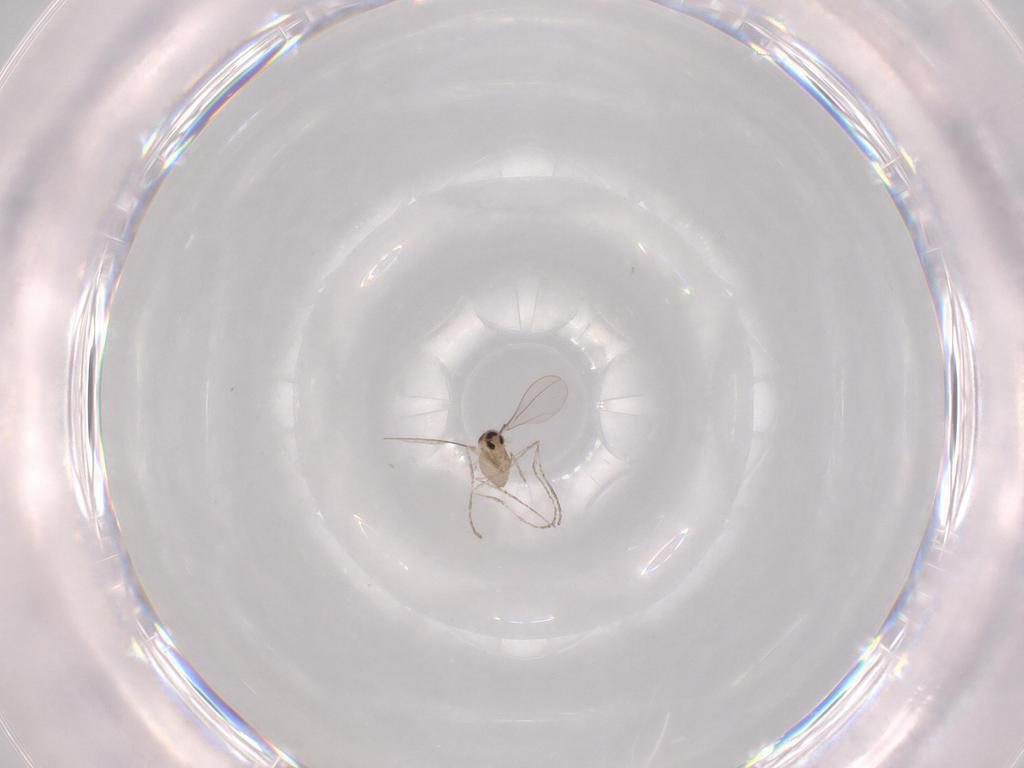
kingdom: Animalia
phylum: Arthropoda
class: Insecta
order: Diptera
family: Cecidomyiidae
